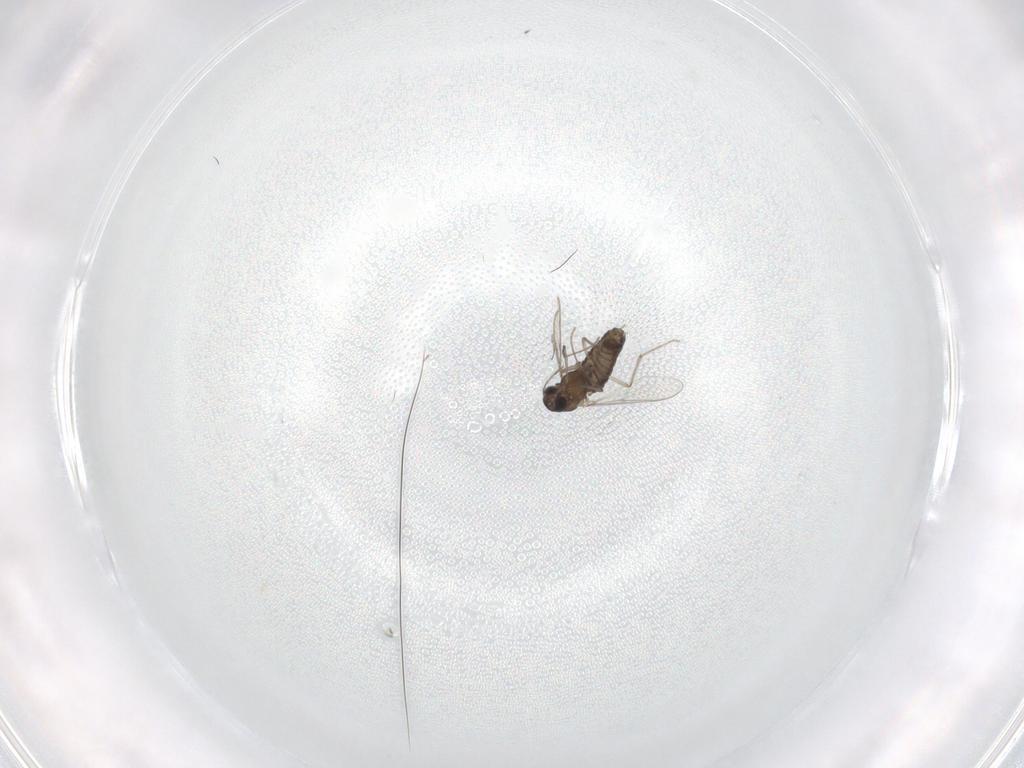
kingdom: Animalia
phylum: Arthropoda
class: Insecta
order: Diptera
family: Chironomidae
